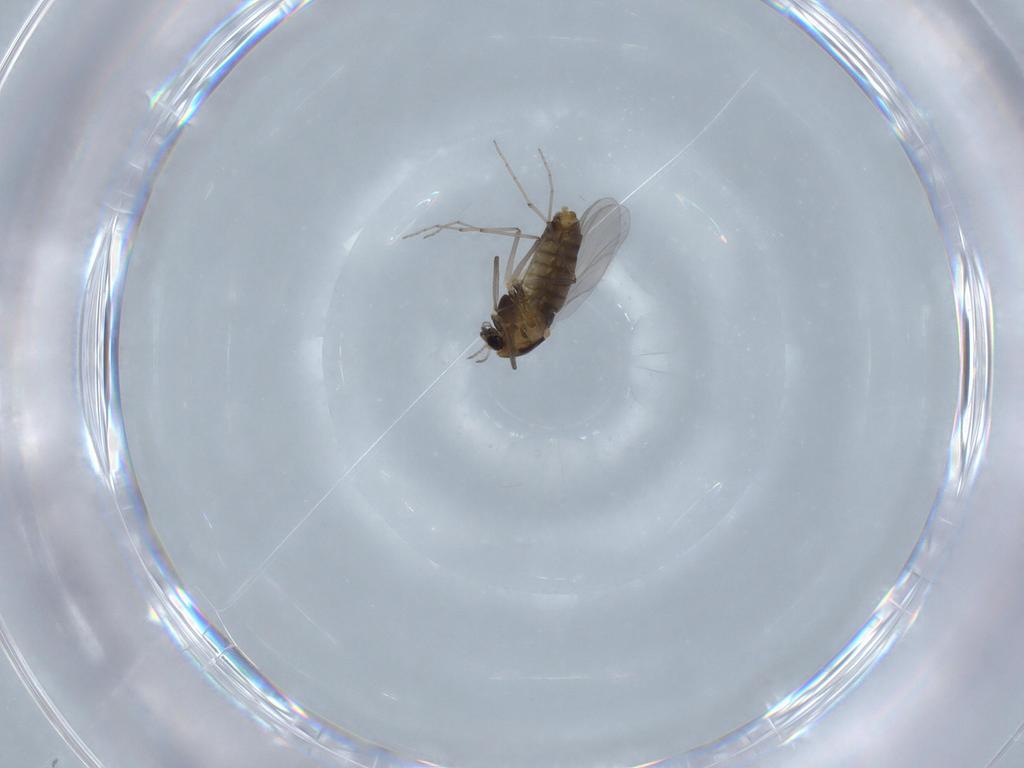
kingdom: Animalia
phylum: Arthropoda
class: Insecta
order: Diptera
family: Chironomidae
